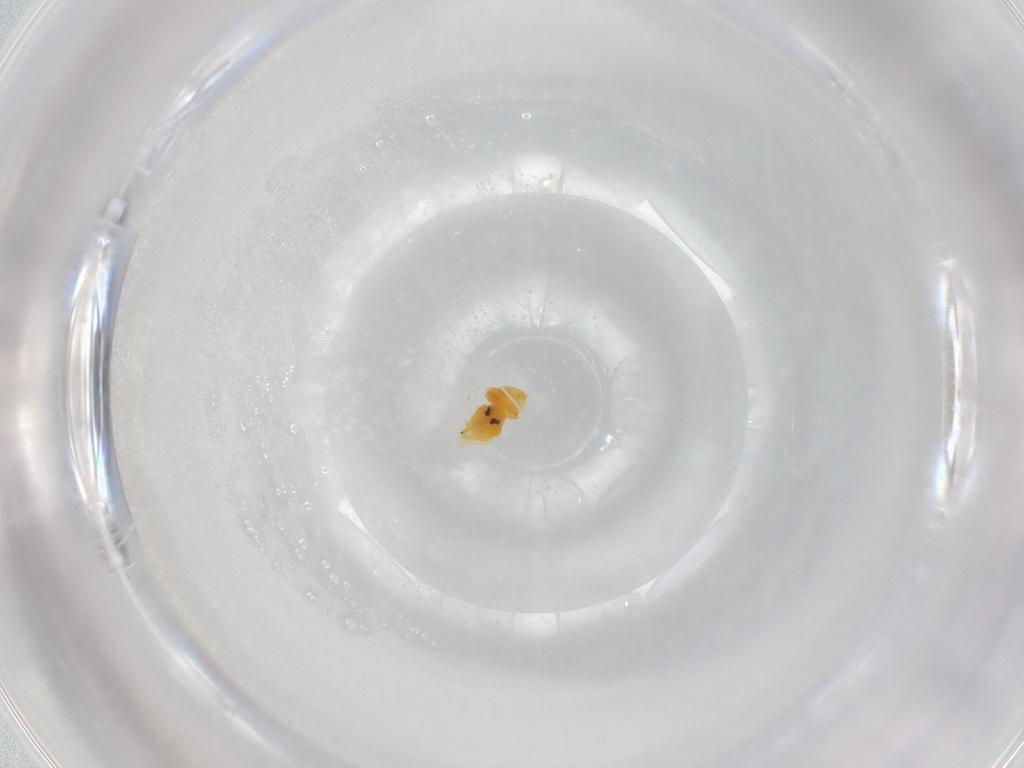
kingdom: Animalia
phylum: Arthropoda
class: Insecta
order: Hemiptera
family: Aleyrodidae
